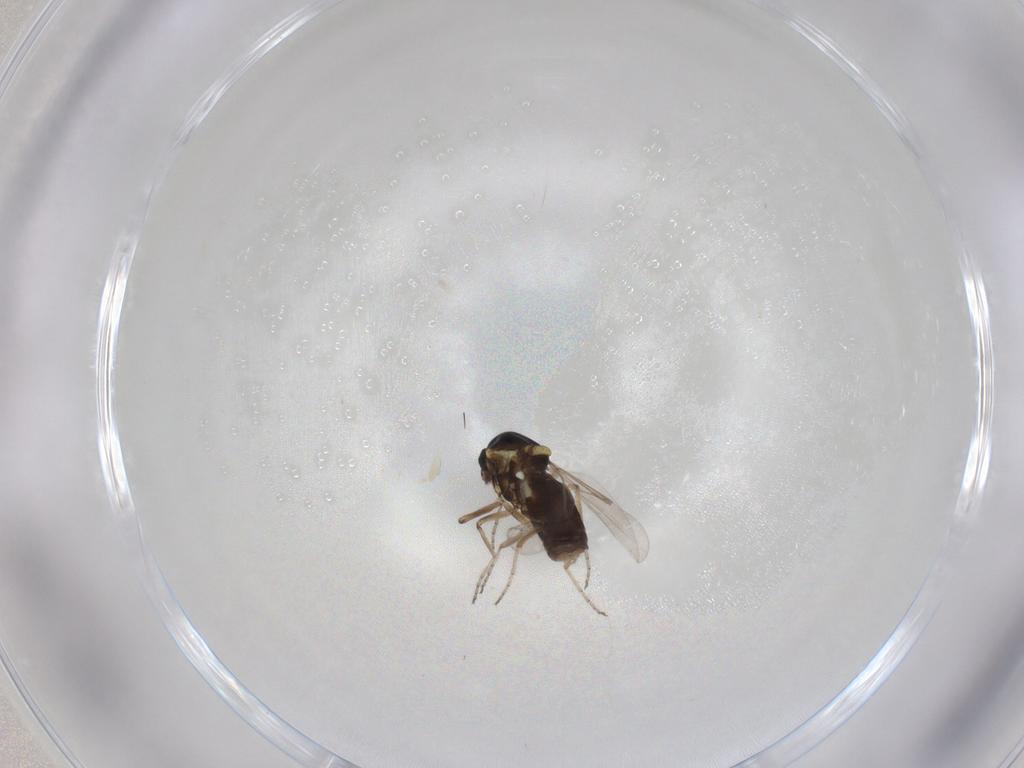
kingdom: Animalia
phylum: Arthropoda
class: Insecta
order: Diptera
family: Ceratopogonidae
